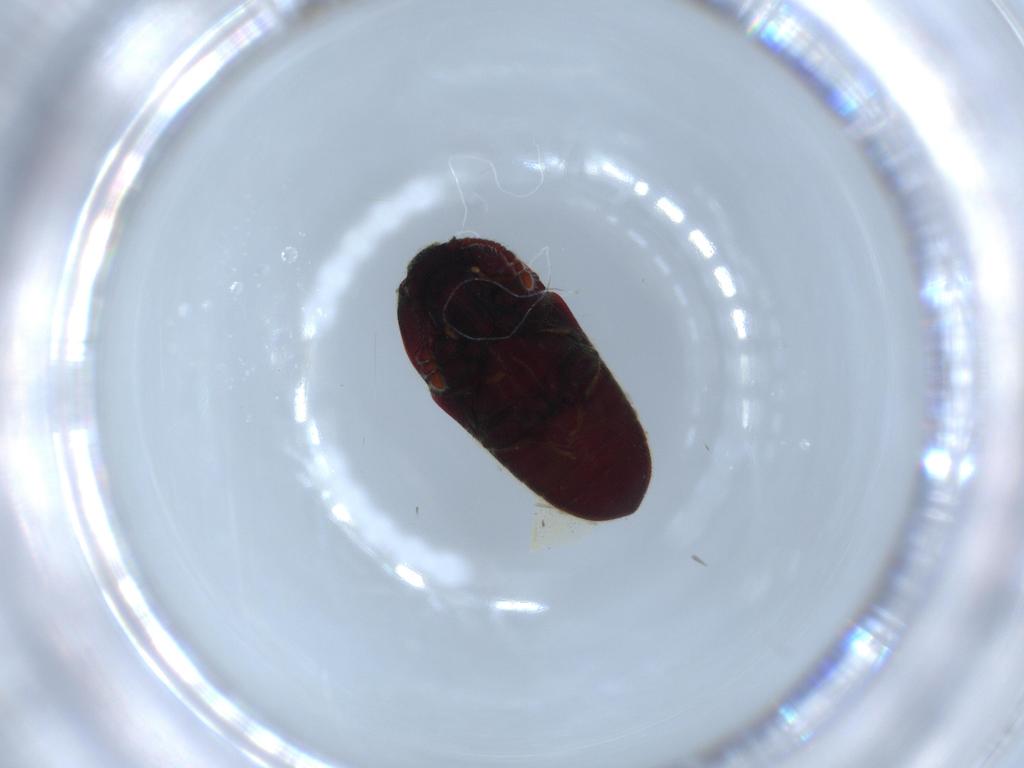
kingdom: Animalia
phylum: Arthropoda
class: Insecta
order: Coleoptera
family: Throscidae
